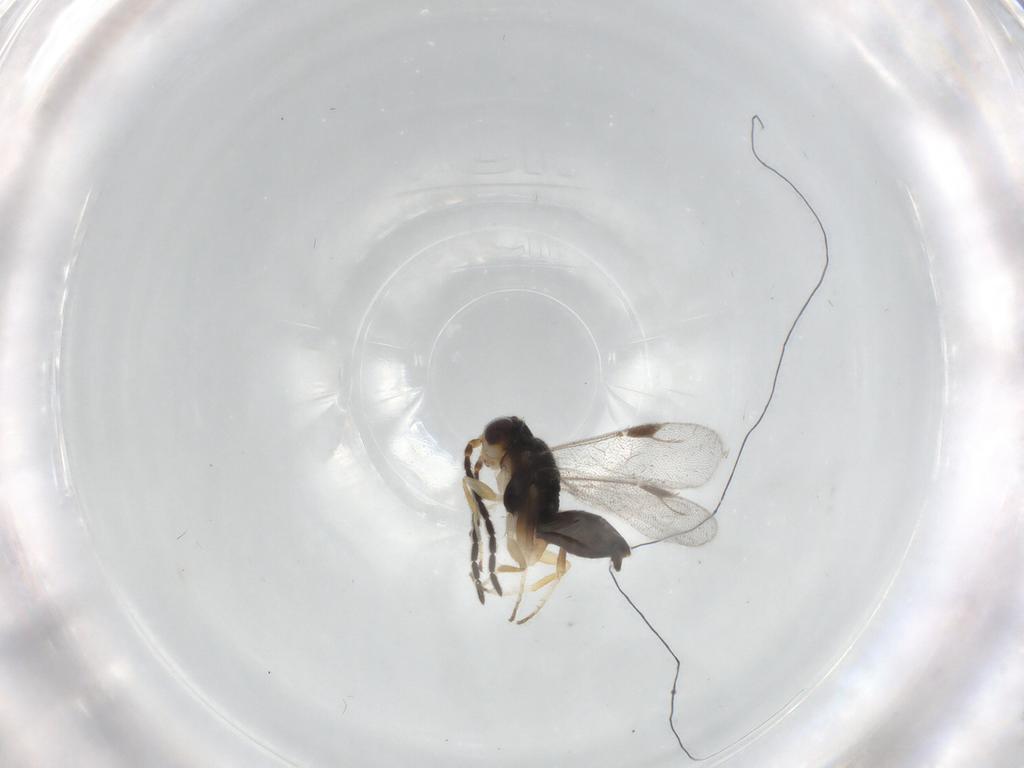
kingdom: Animalia
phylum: Arthropoda
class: Insecta
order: Hymenoptera
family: Dryinidae
